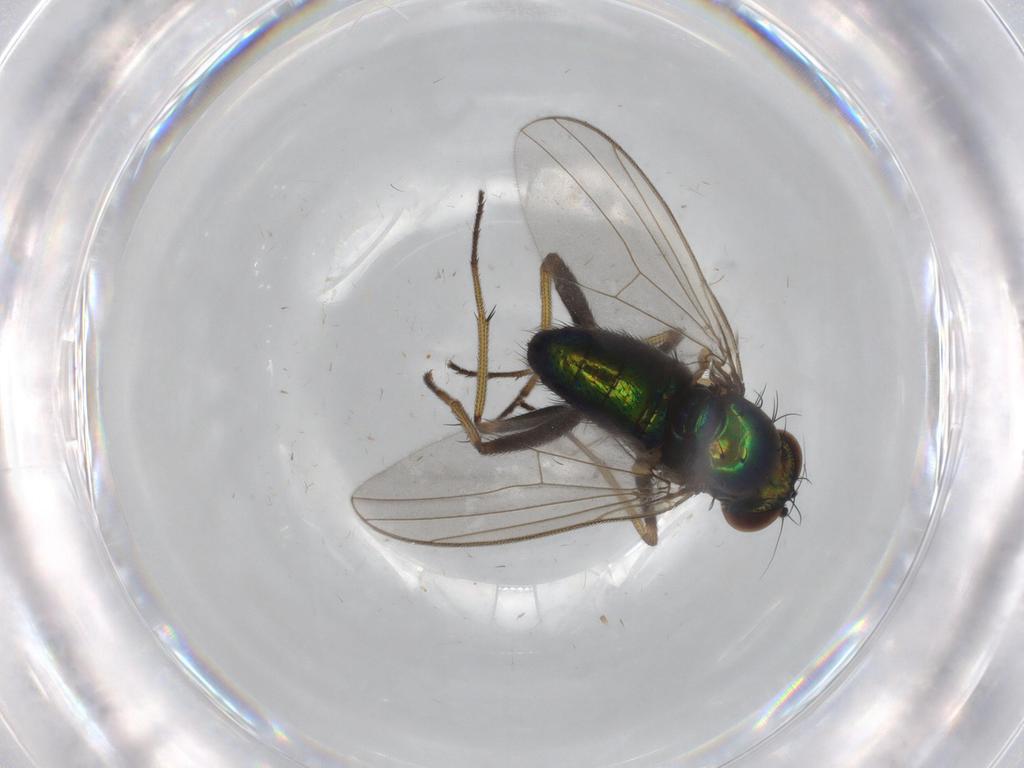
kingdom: Animalia
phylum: Arthropoda
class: Insecta
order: Diptera
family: Dolichopodidae
